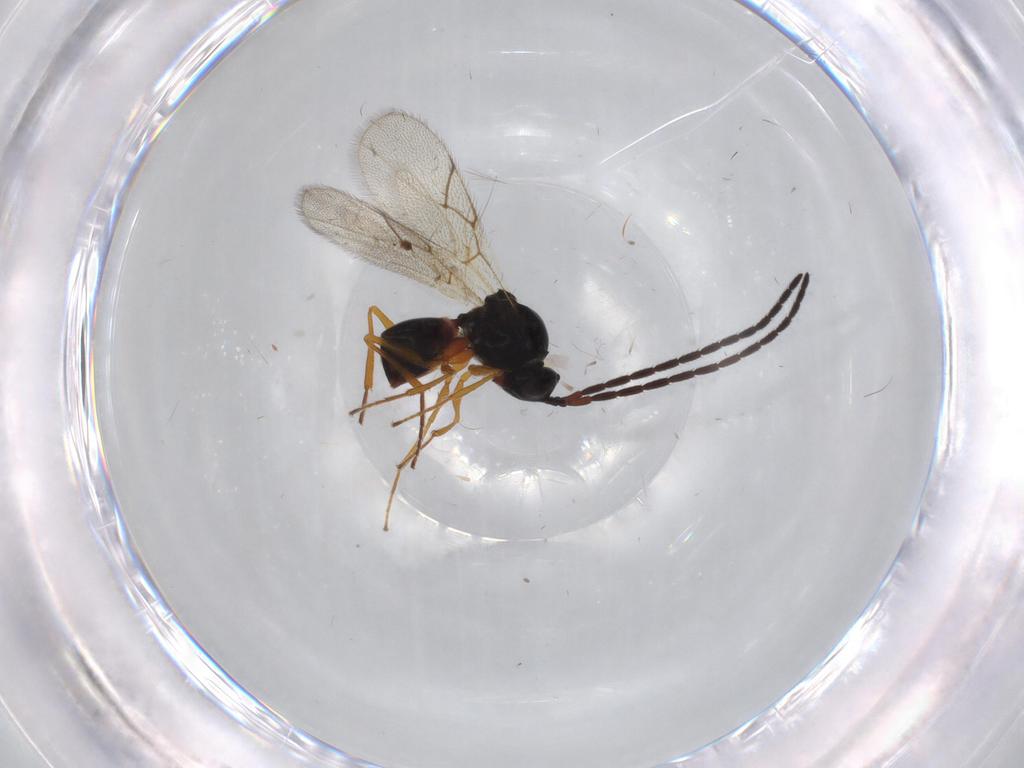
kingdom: Animalia
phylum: Arthropoda
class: Insecta
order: Hymenoptera
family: Figitidae
